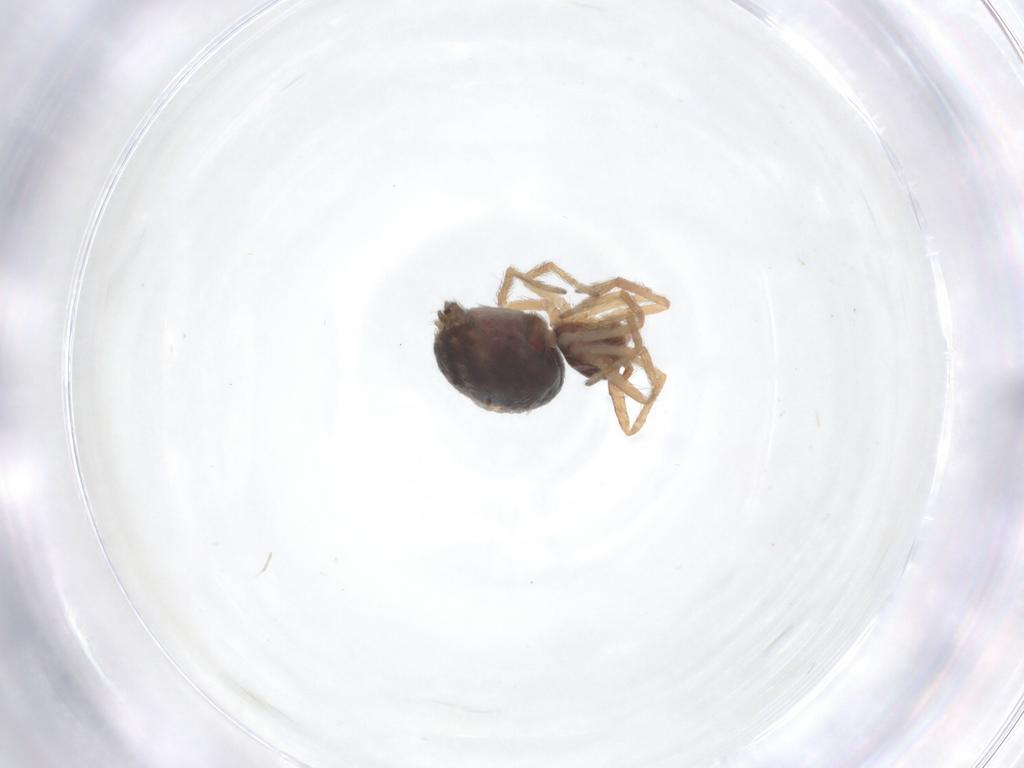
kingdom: Animalia
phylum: Arthropoda
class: Arachnida
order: Araneae
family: Dictynidae
